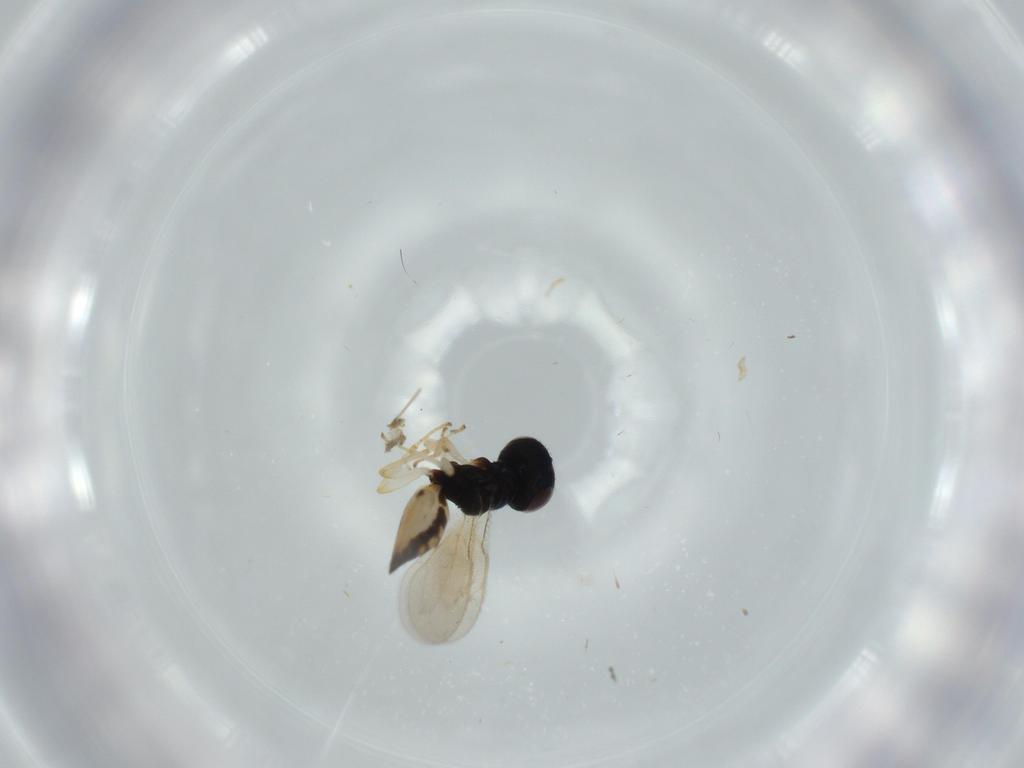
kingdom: Animalia
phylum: Arthropoda
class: Insecta
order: Hymenoptera
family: Pteromalidae
